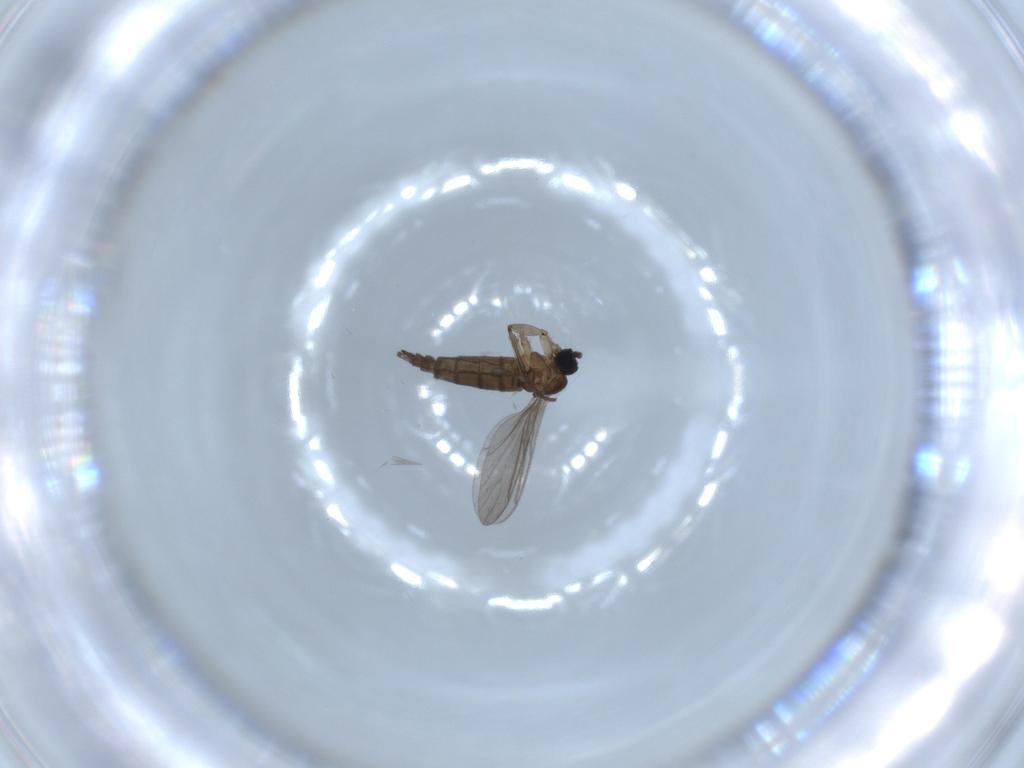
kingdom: Animalia
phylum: Arthropoda
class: Insecta
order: Diptera
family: Sciaridae
